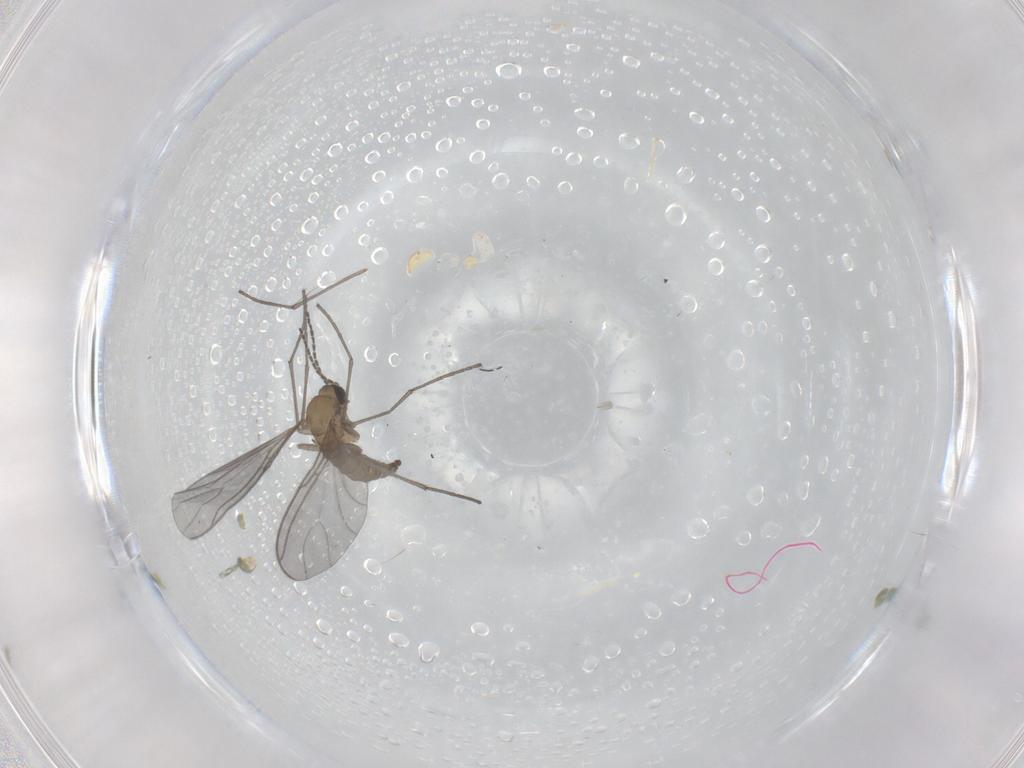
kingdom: Animalia
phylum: Arthropoda
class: Insecta
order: Diptera
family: Sciaridae
